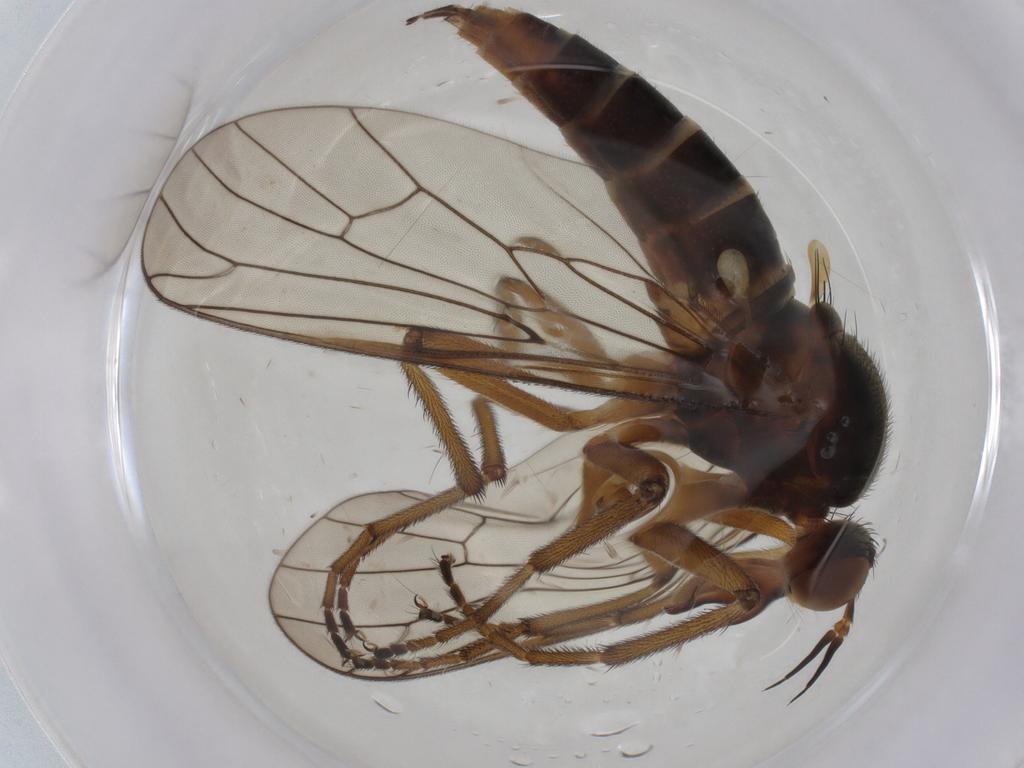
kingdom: Animalia
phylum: Arthropoda
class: Insecta
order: Diptera
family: Empididae
